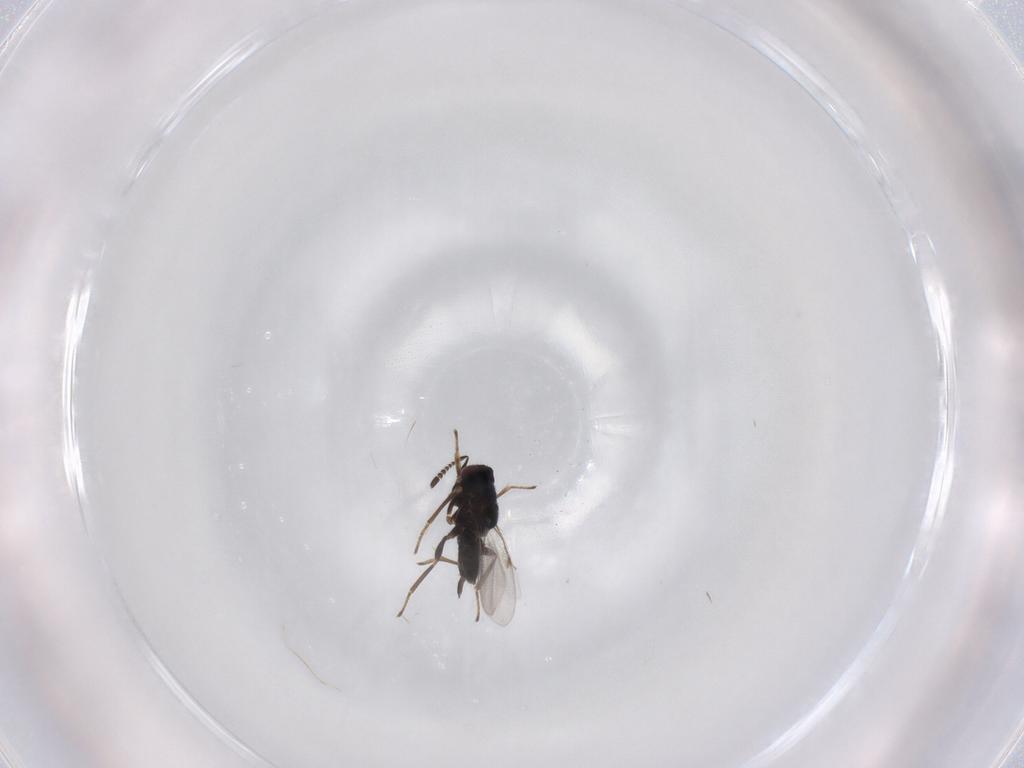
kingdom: Animalia
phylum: Arthropoda
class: Insecta
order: Hymenoptera
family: Encyrtidae
